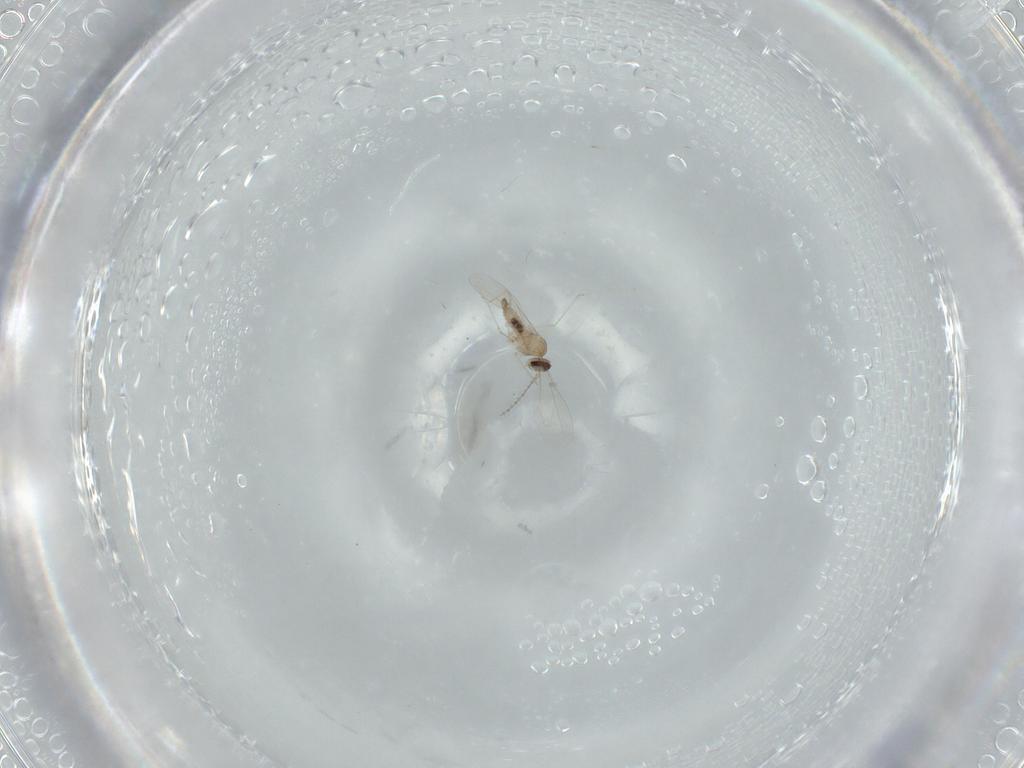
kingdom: Animalia
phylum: Arthropoda
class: Insecta
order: Diptera
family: Cecidomyiidae
